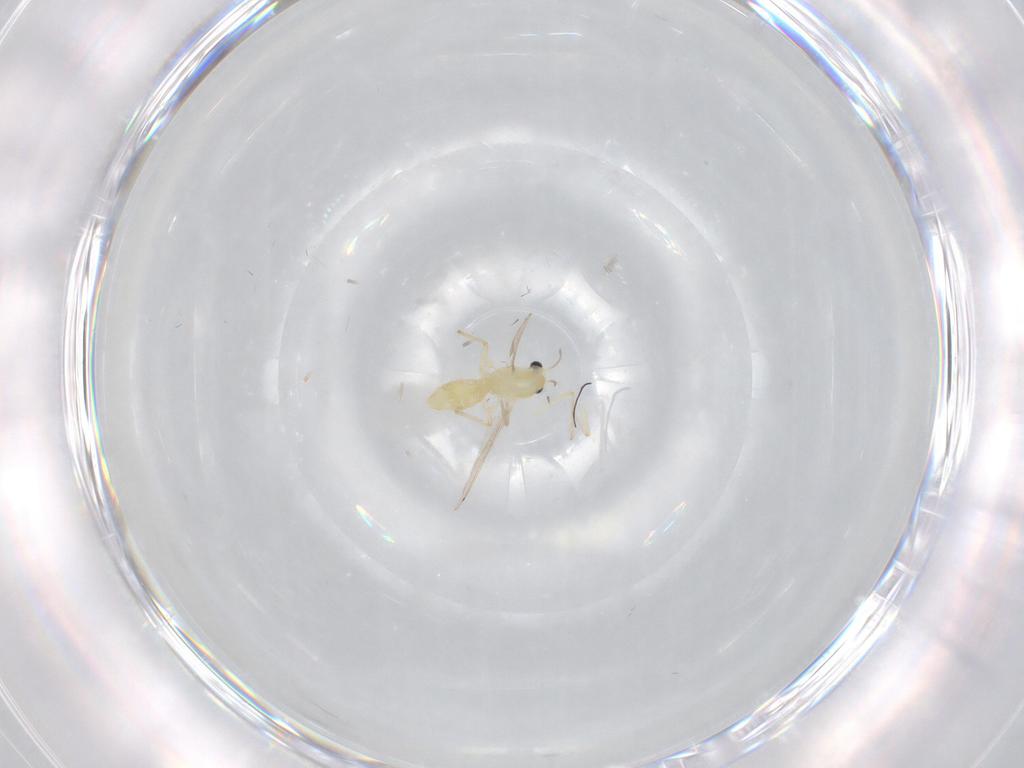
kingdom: Animalia
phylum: Arthropoda
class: Insecta
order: Diptera
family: Chironomidae
